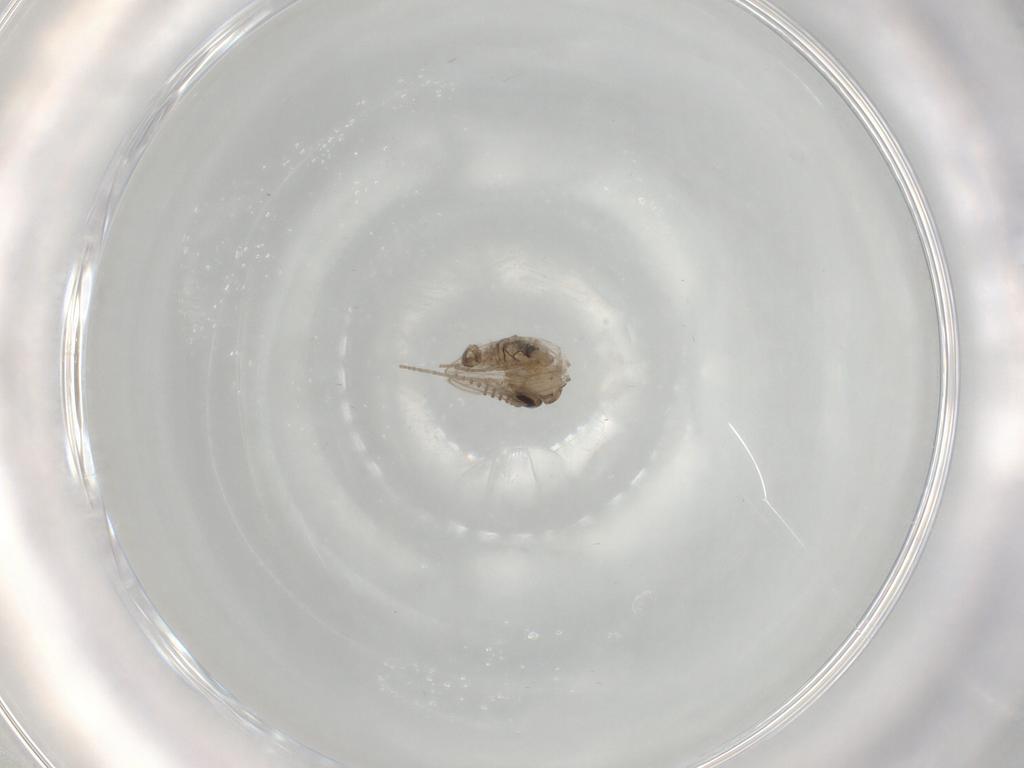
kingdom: Animalia
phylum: Arthropoda
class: Insecta
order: Diptera
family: Psychodidae
